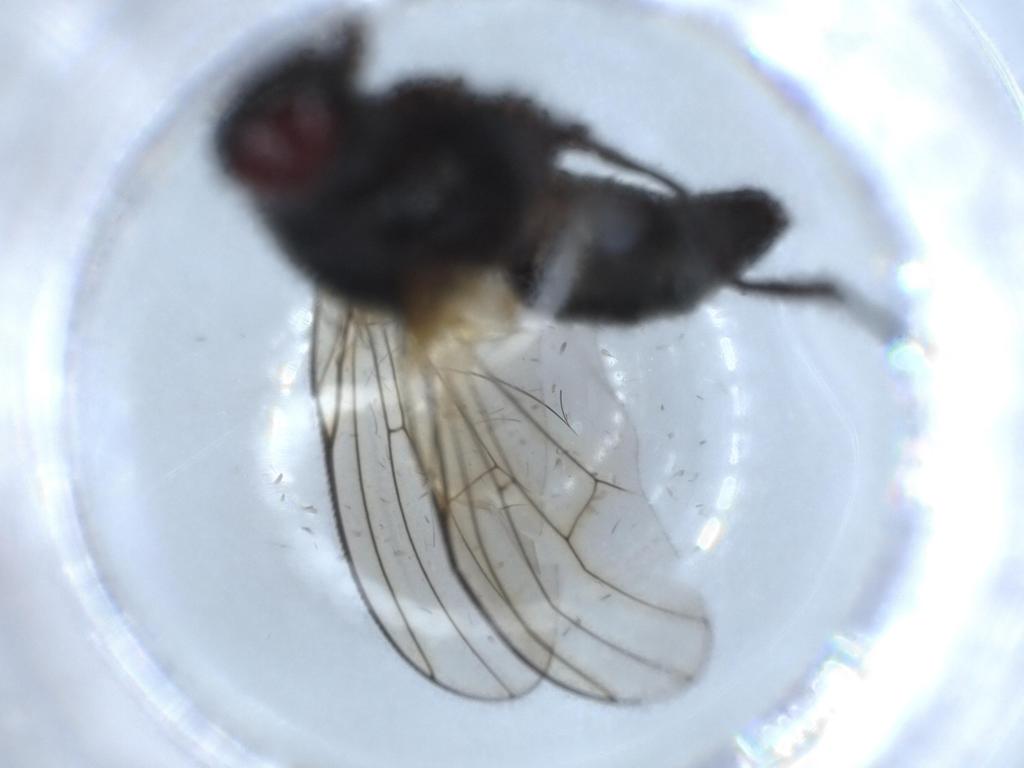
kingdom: Animalia
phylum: Arthropoda
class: Insecta
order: Diptera
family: Muscidae
